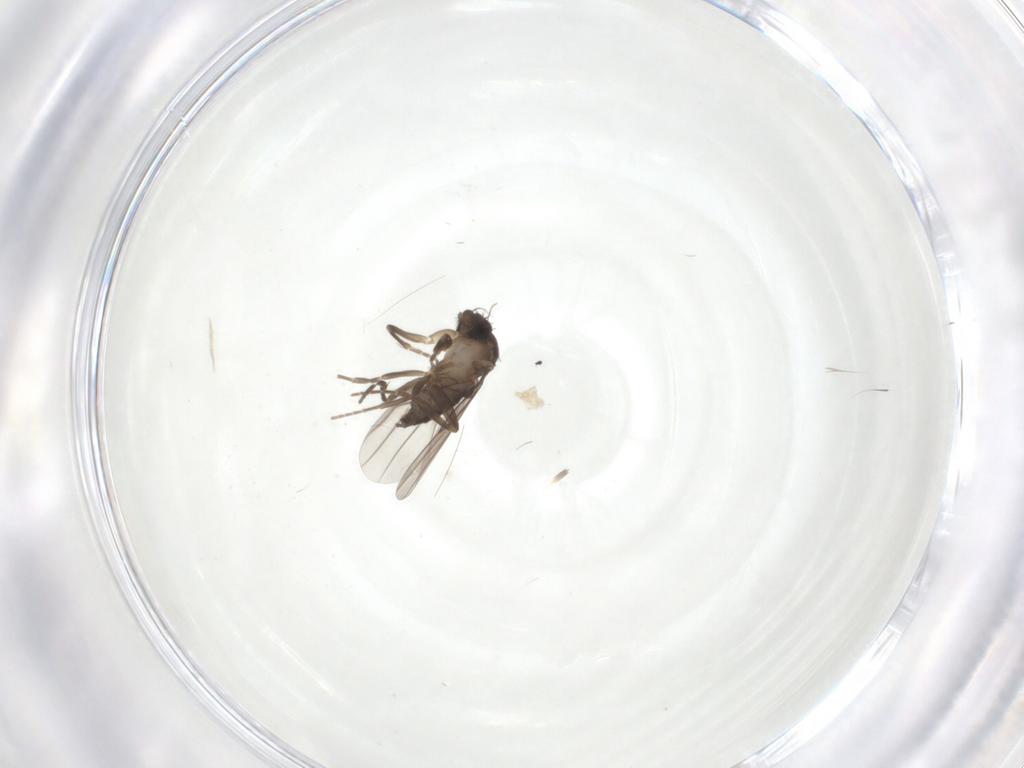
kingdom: Animalia
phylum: Arthropoda
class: Insecta
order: Diptera
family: Phoridae
